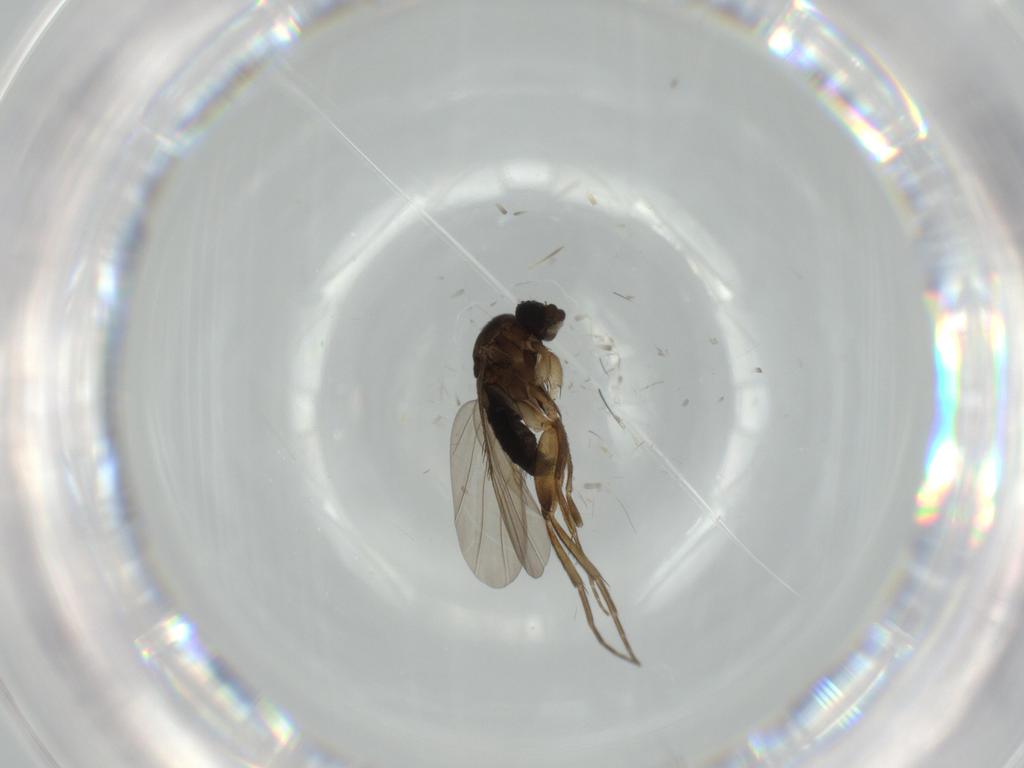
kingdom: Animalia
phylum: Arthropoda
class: Insecta
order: Diptera
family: Phoridae
